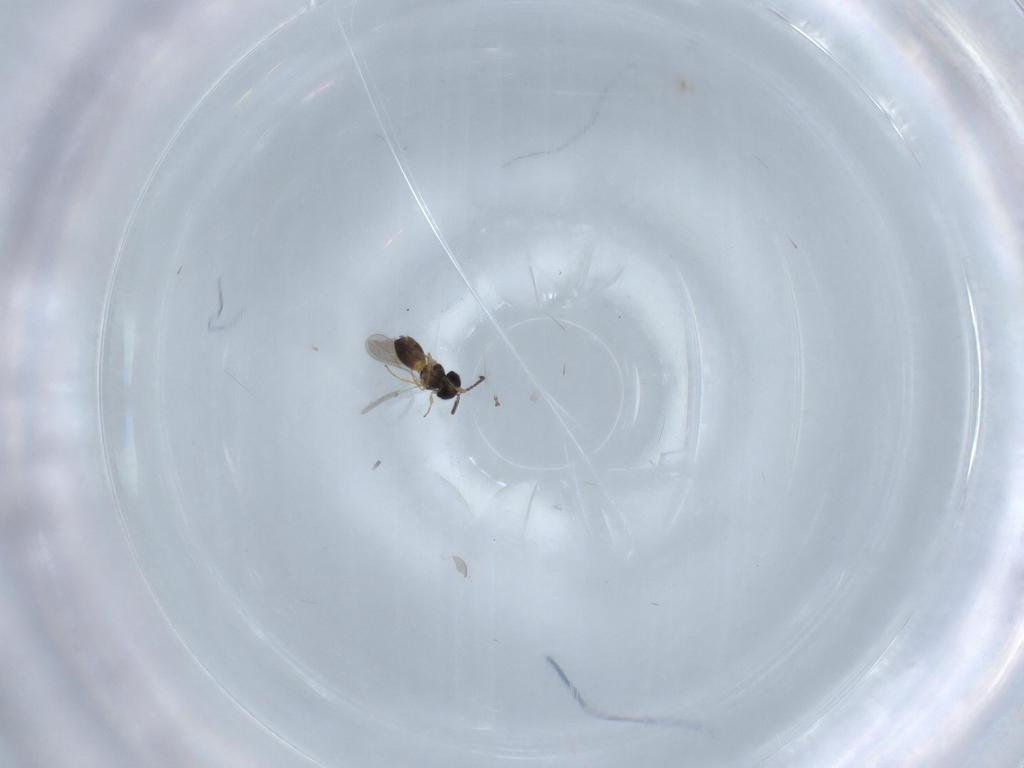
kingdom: Animalia
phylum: Arthropoda
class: Insecta
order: Hymenoptera
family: Scelionidae
